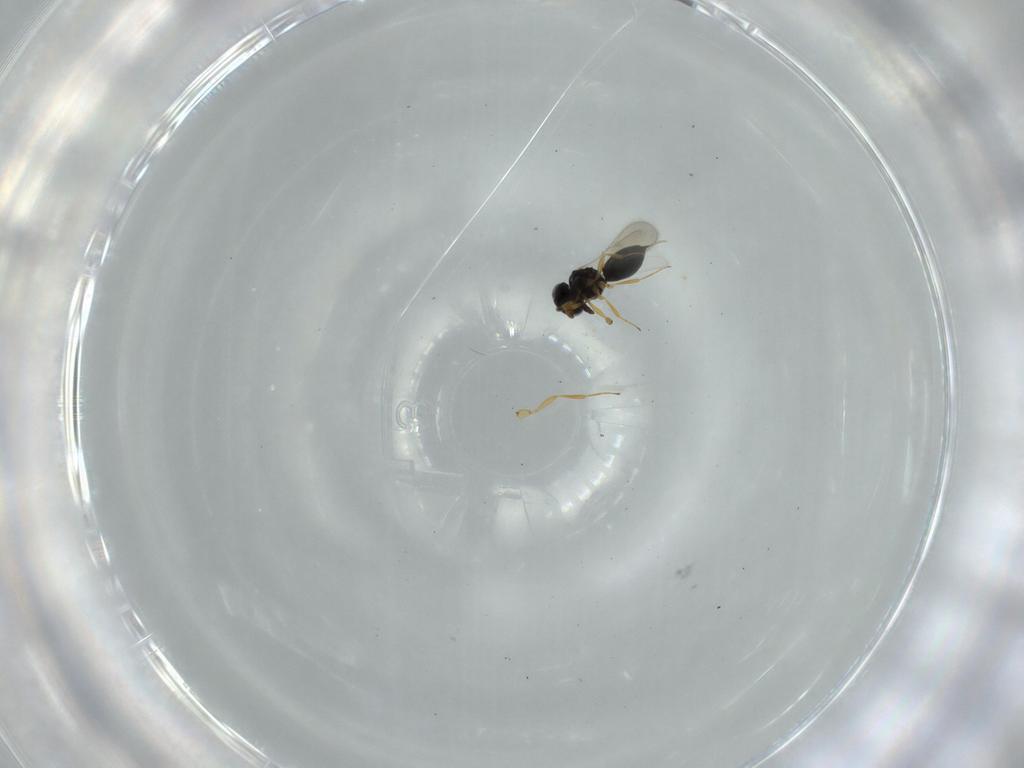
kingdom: Animalia
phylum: Arthropoda
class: Insecta
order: Hymenoptera
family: Scelionidae
